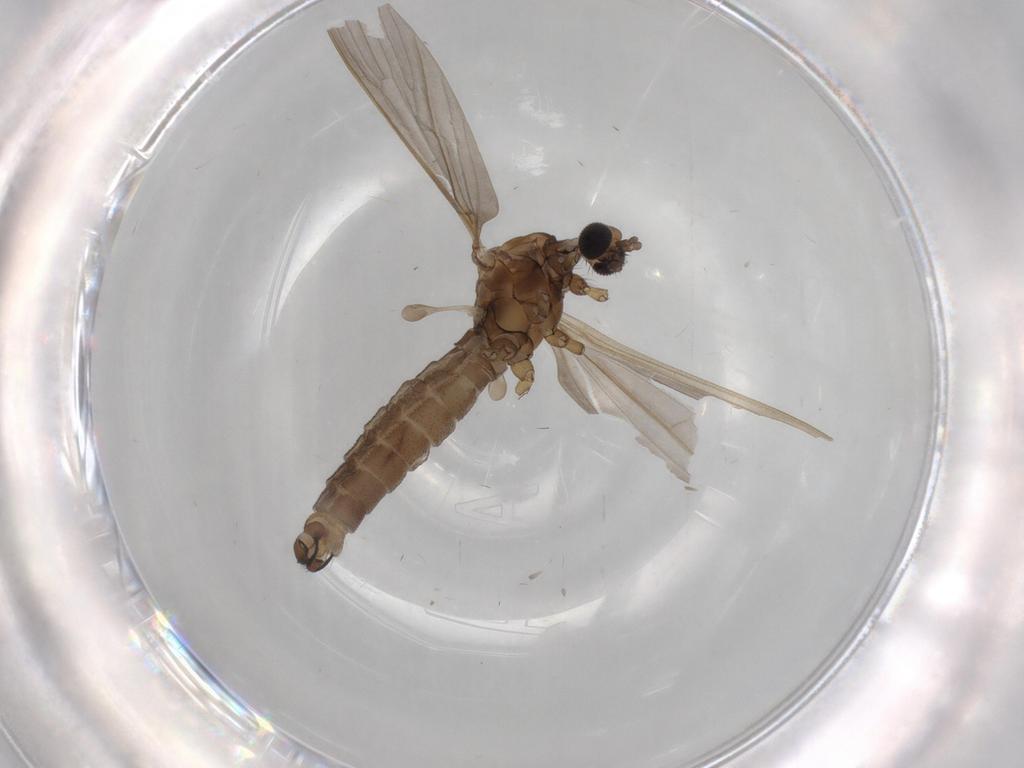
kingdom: Animalia
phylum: Arthropoda
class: Insecta
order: Diptera
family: Limoniidae
